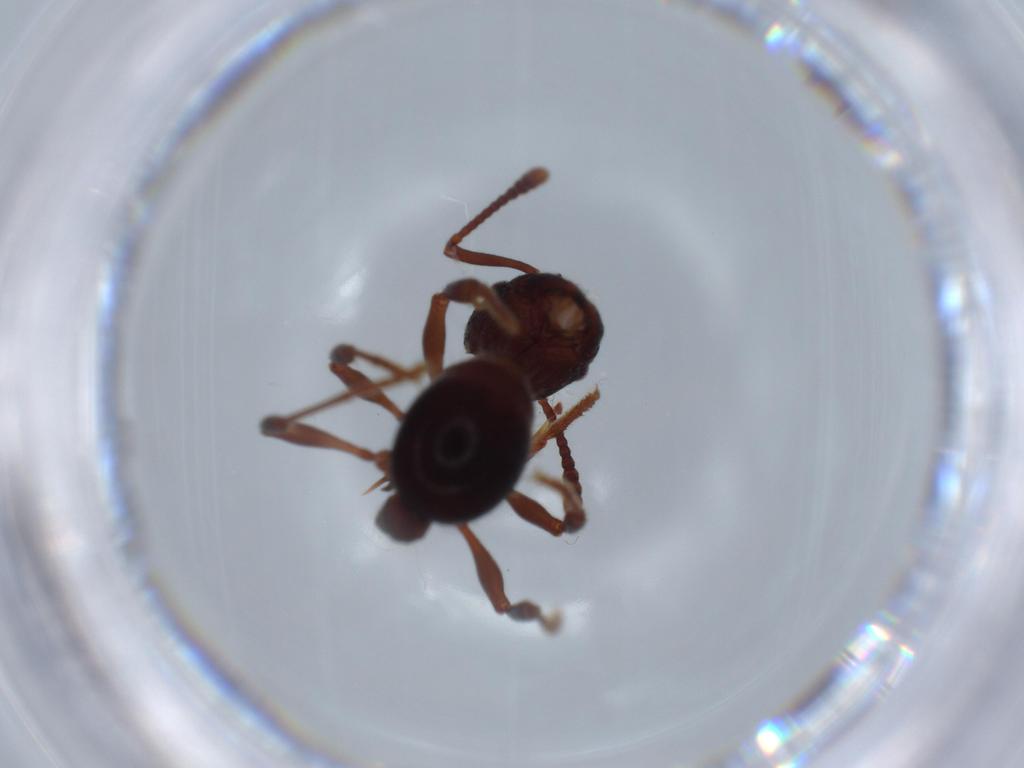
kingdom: Animalia
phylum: Arthropoda
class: Insecta
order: Hymenoptera
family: Formicidae
